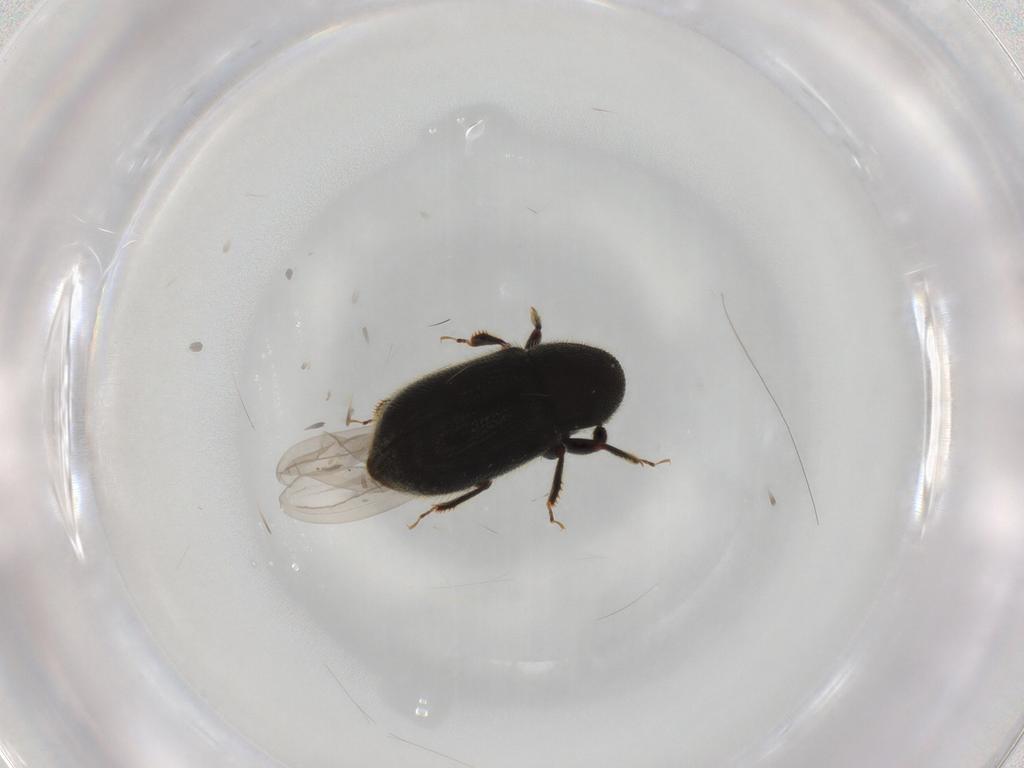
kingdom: Animalia
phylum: Arthropoda
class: Insecta
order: Coleoptera
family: Curculionidae
